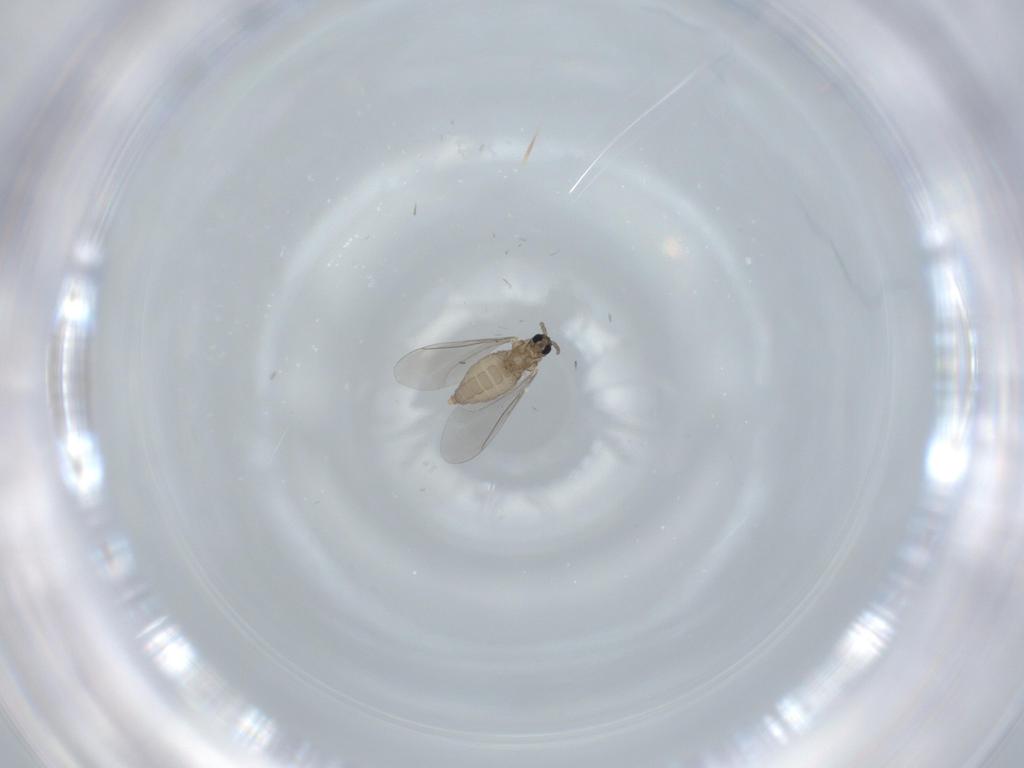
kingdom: Animalia
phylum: Arthropoda
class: Insecta
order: Diptera
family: Cecidomyiidae
